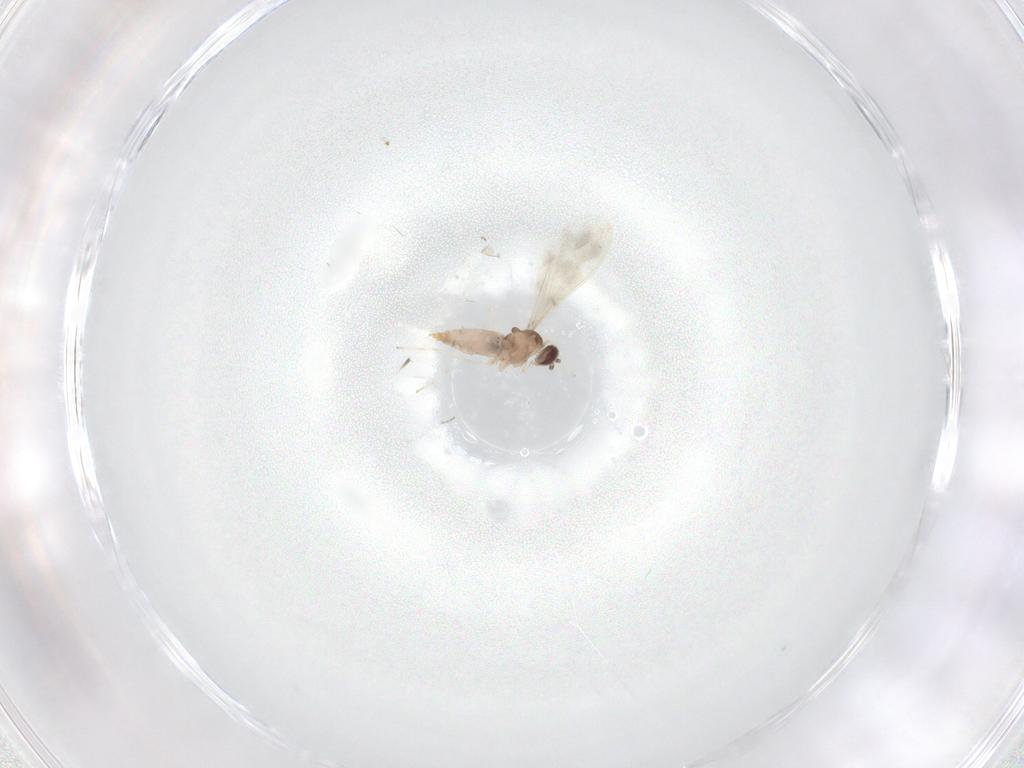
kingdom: Animalia
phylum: Arthropoda
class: Insecta
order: Diptera
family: Cecidomyiidae
